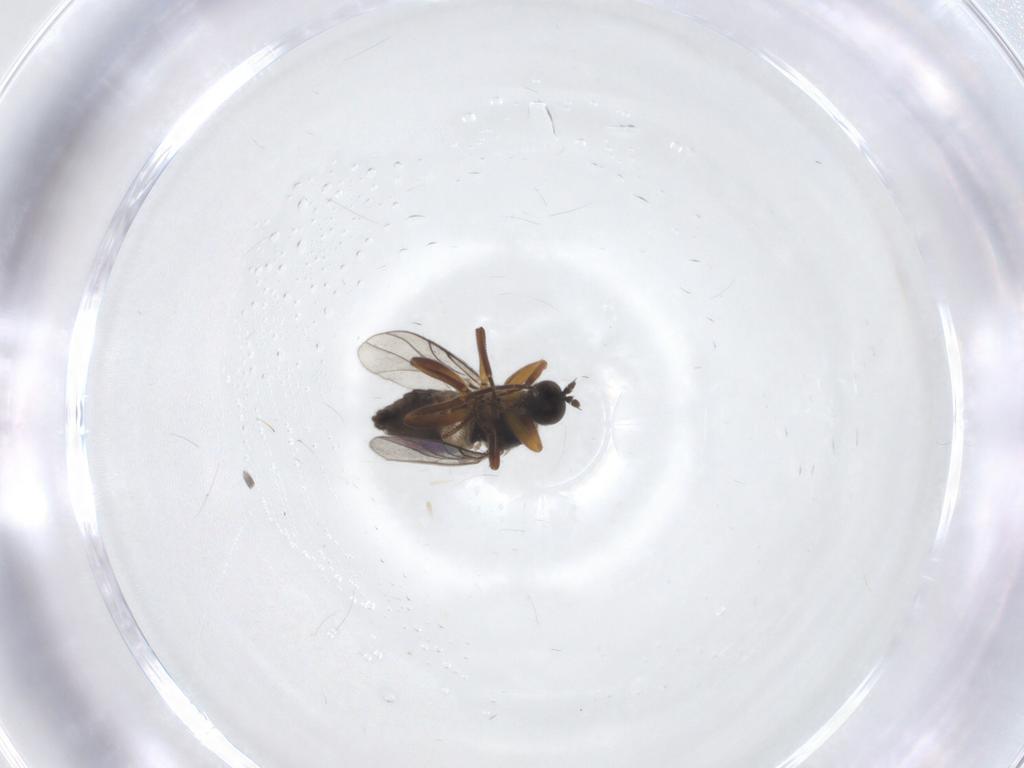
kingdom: Animalia
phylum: Arthropoda
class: Insecta
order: Diptera
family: Hybotidae
